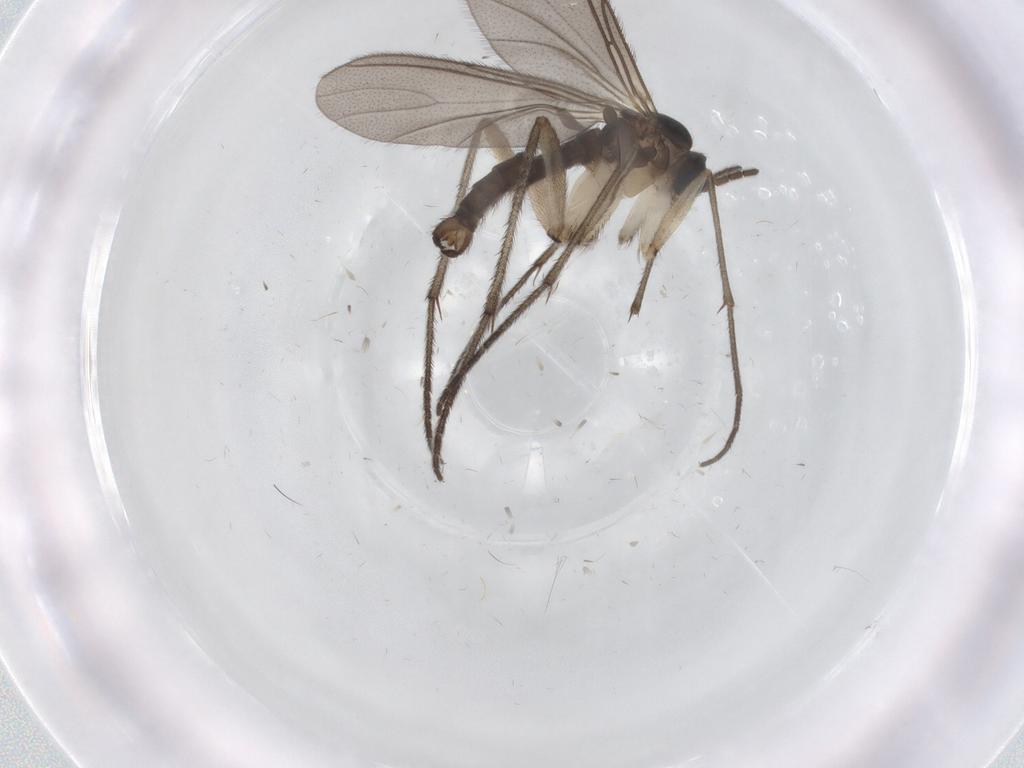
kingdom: Animalia
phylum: Arthropoda
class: Insecta
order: Diptera
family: Sciaridae
